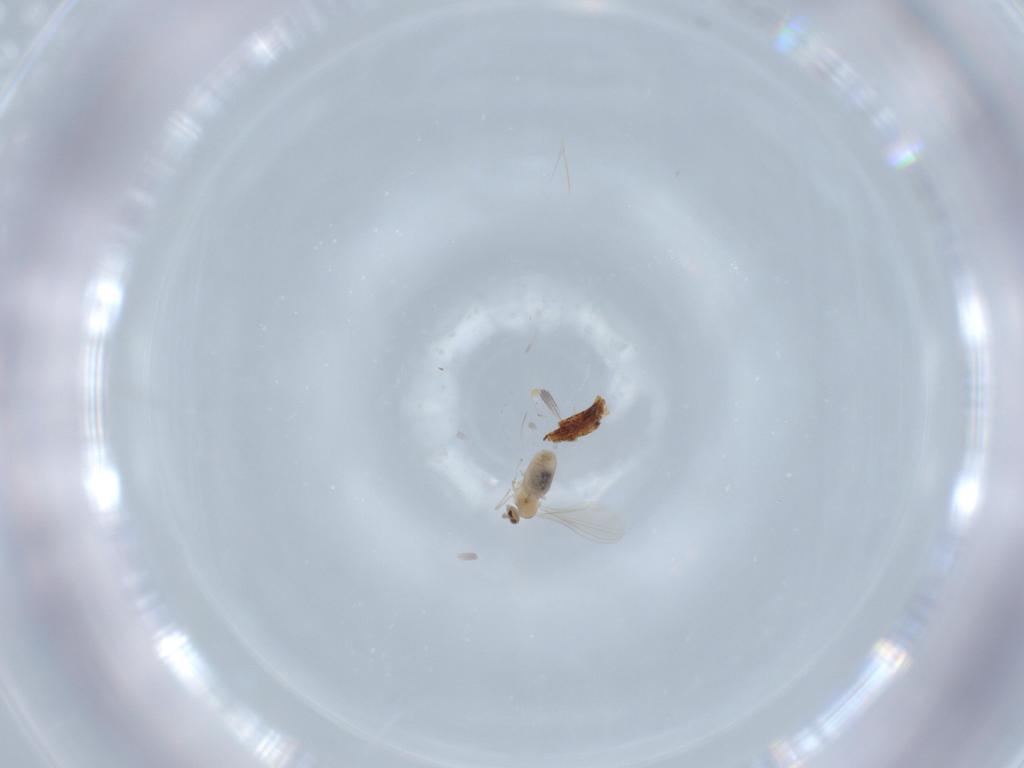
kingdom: Animalia
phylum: Arthropoda
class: Insecta
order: Diptera
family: Cecidomyiidae
